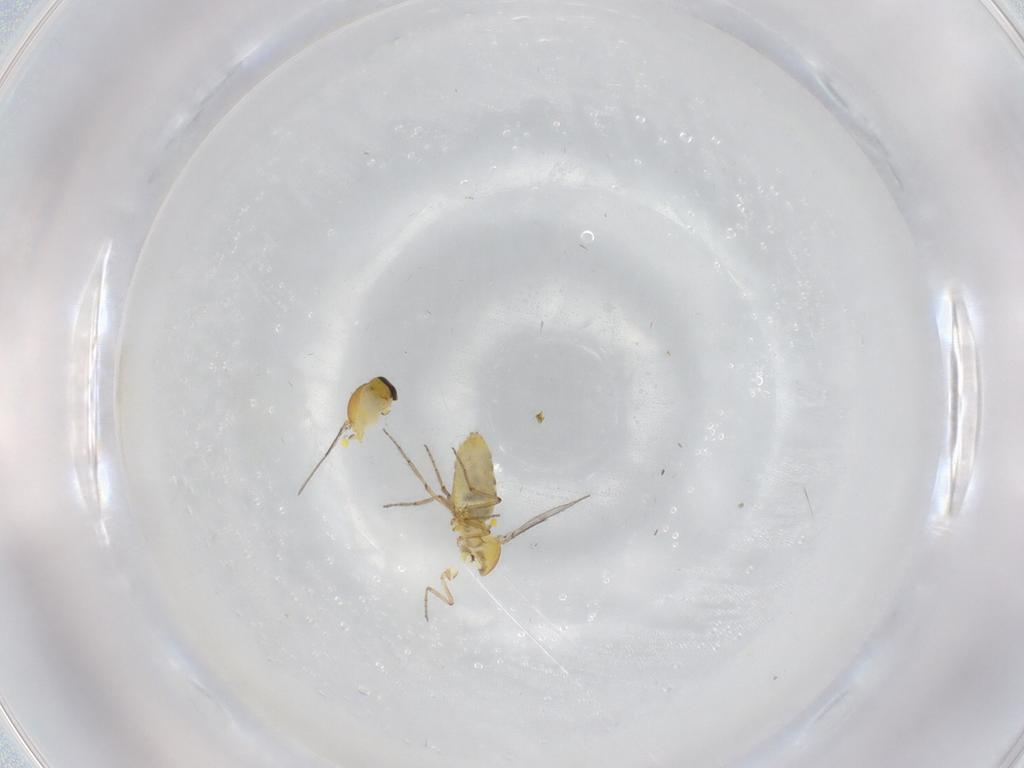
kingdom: Animalia
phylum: Arthropoda
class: Insecta
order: Diptera
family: Ceratopogonidae
